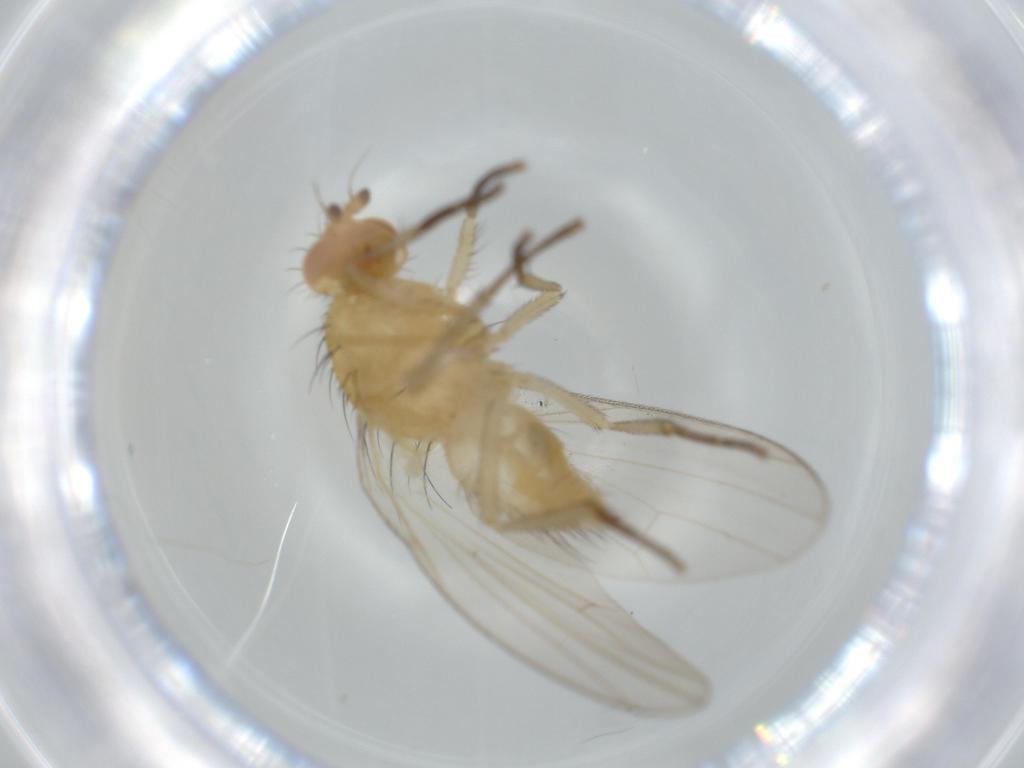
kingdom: Animalia
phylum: Arthropoda
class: Insecta
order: Diptera
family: Lauxaniidae
